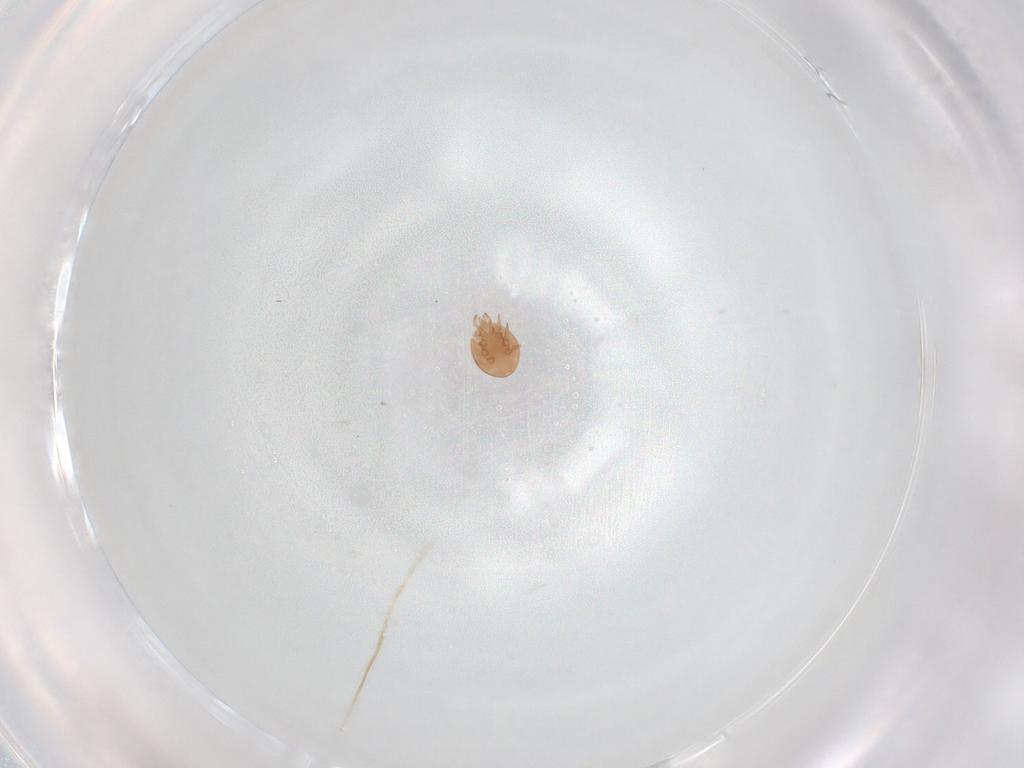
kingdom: Animalia
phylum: Arthropoda
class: Arachnida
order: Mesostigmata
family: Trematuridae
